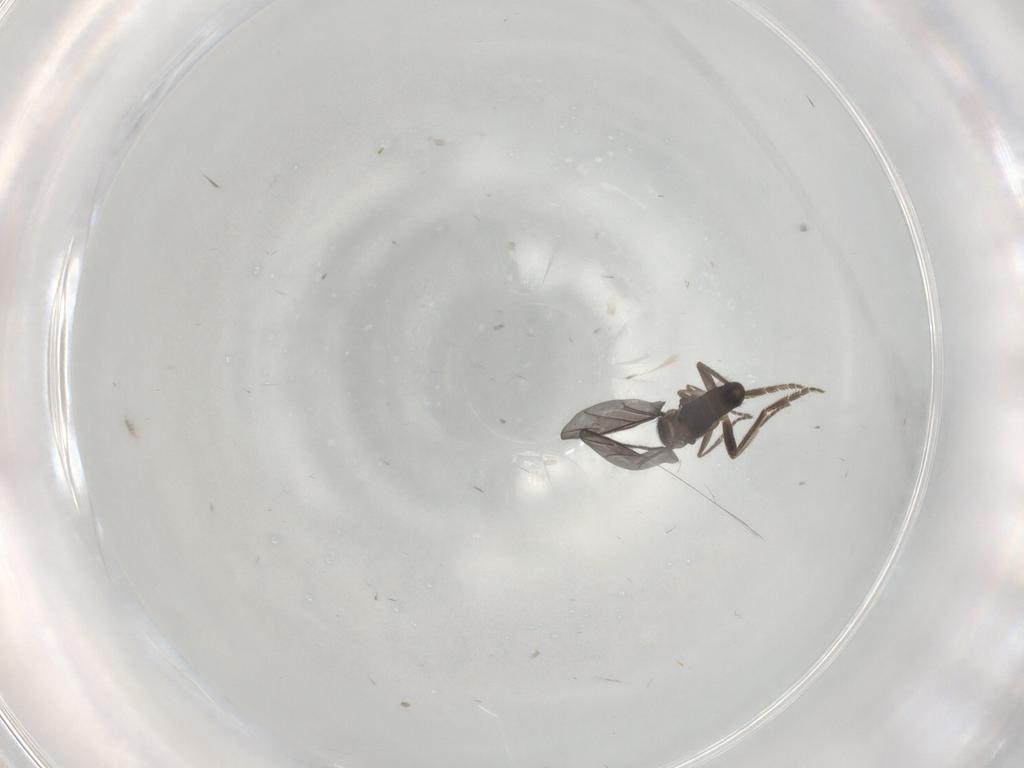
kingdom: Animalia
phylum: Arthropoda
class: Insecta
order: Diptera
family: Phoridae
